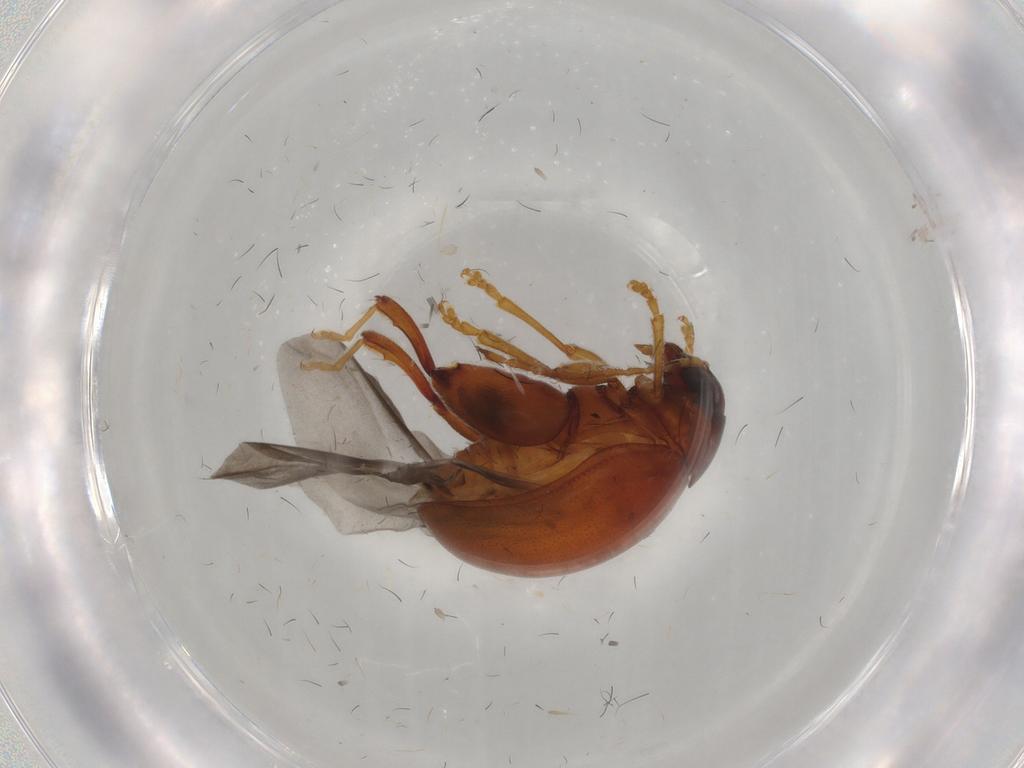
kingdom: Animalia
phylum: Arthropoda
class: Insecta
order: Coleoptera
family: Chrysomelidae
